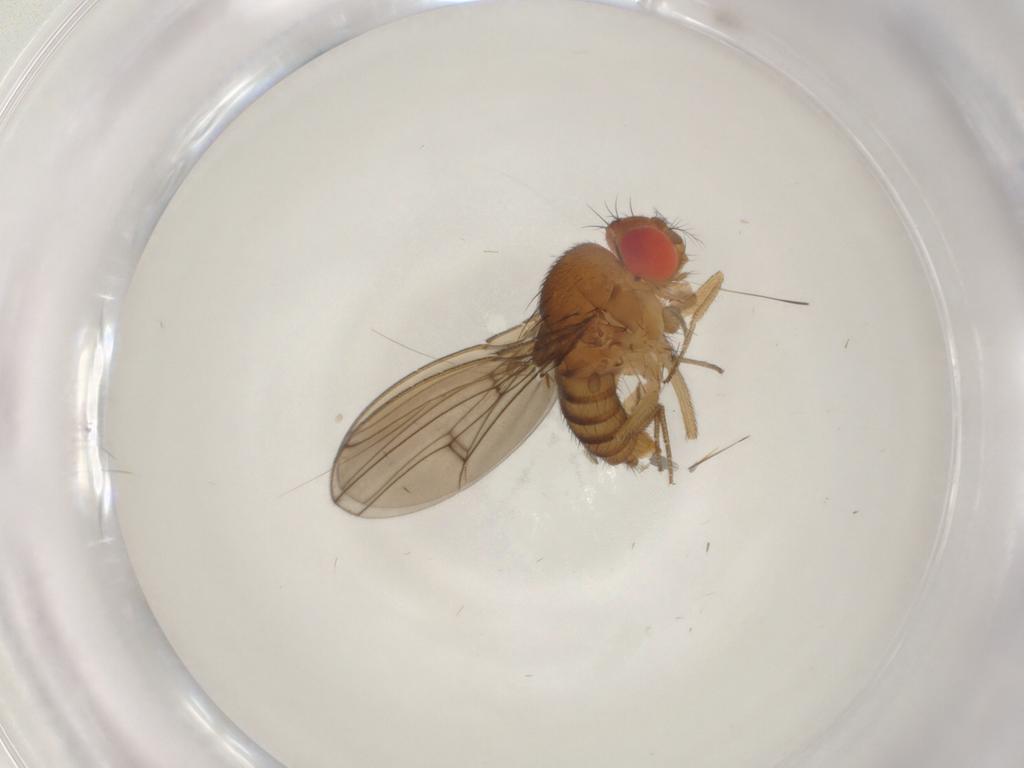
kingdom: Animalia
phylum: Arthropoda
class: Insecta
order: Diptera
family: Drosophilidae
